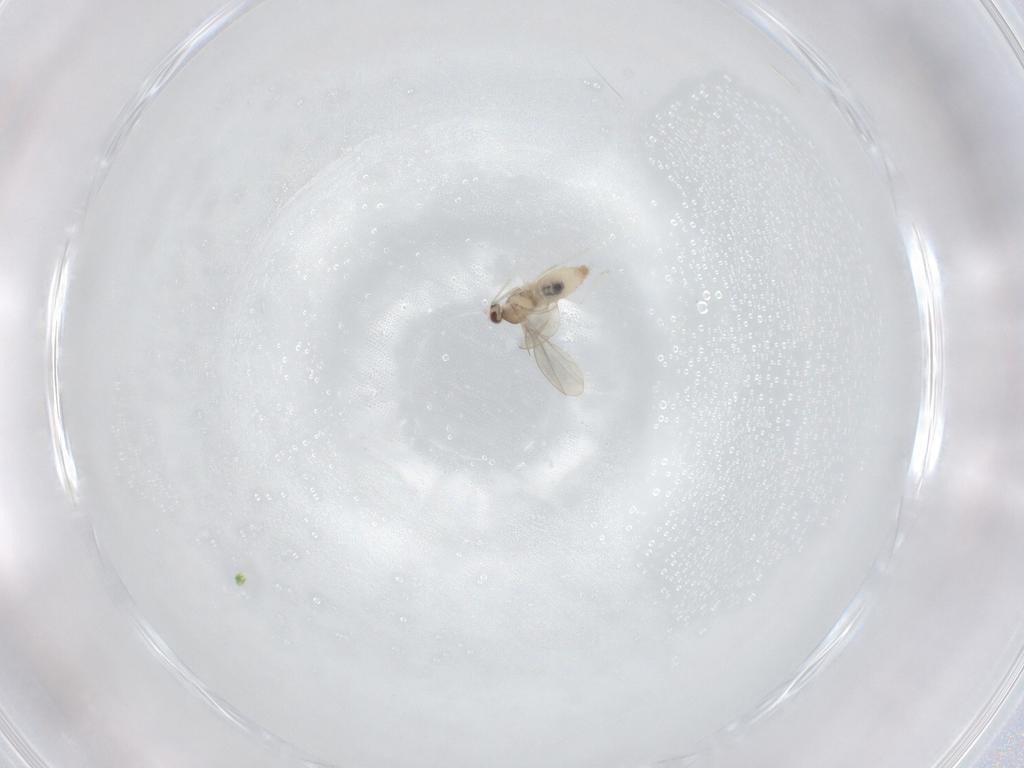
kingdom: Animalia
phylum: Arthropoda
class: Insecta
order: Diptera
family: Cecidomyiidae
